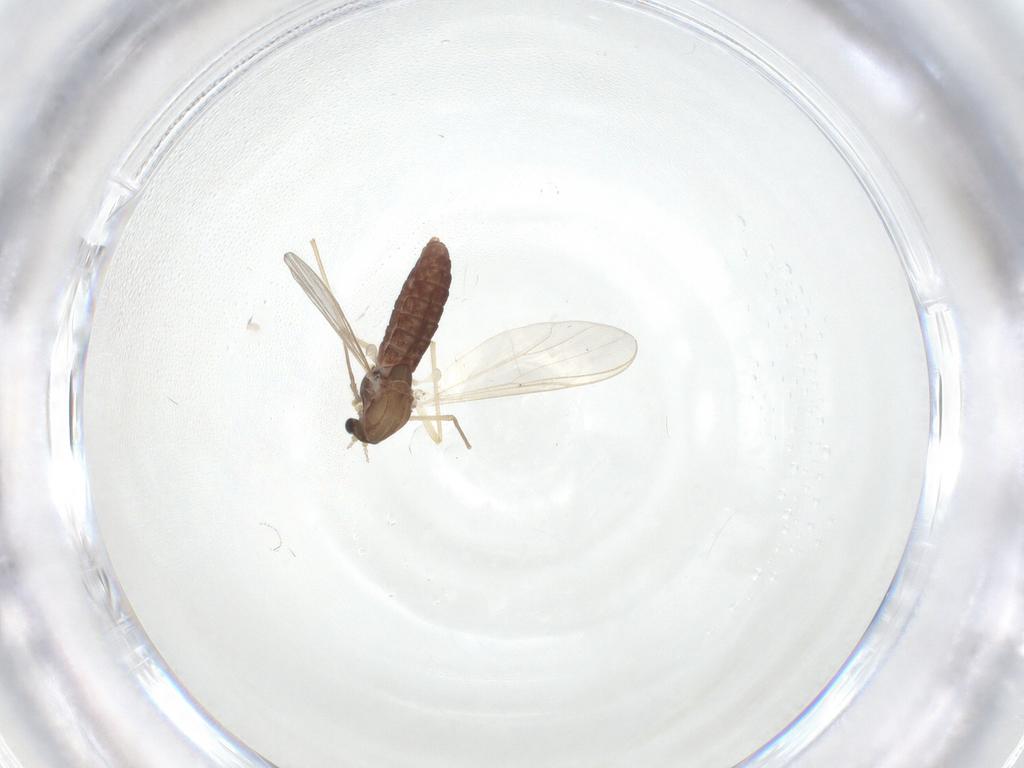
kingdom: Animalia
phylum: Arthropoda
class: Insecta
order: Diptera
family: Chironomidae
